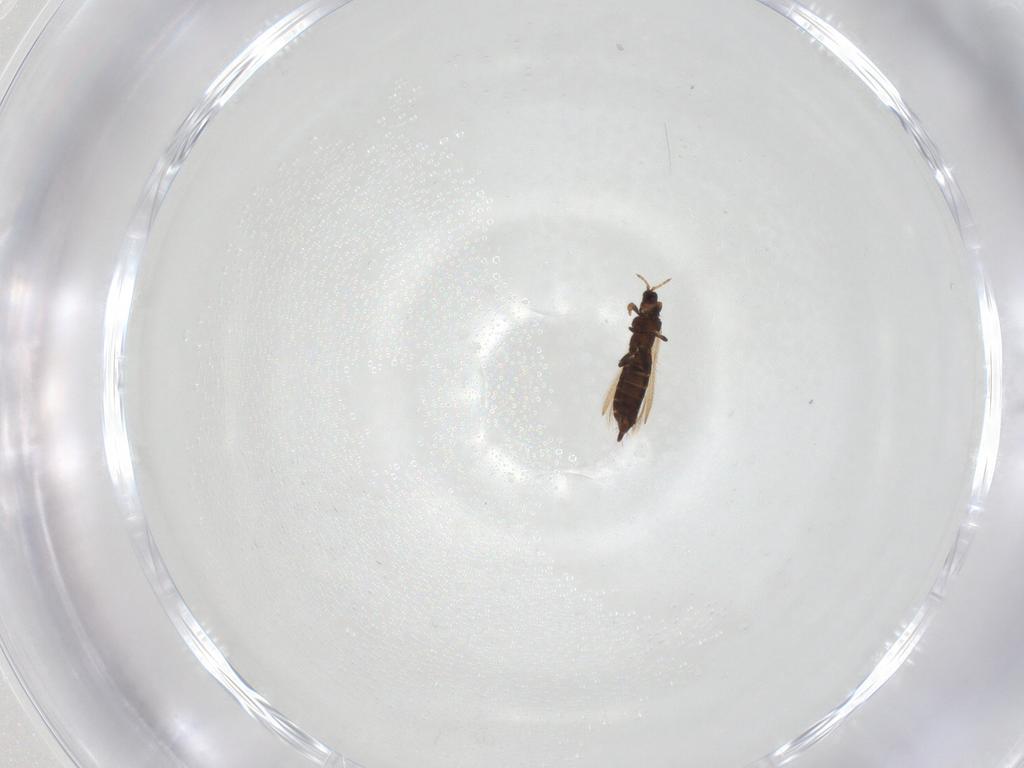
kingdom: Animalia
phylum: Arthropoda
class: Insecta
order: Thysanoptera
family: Thripidae
